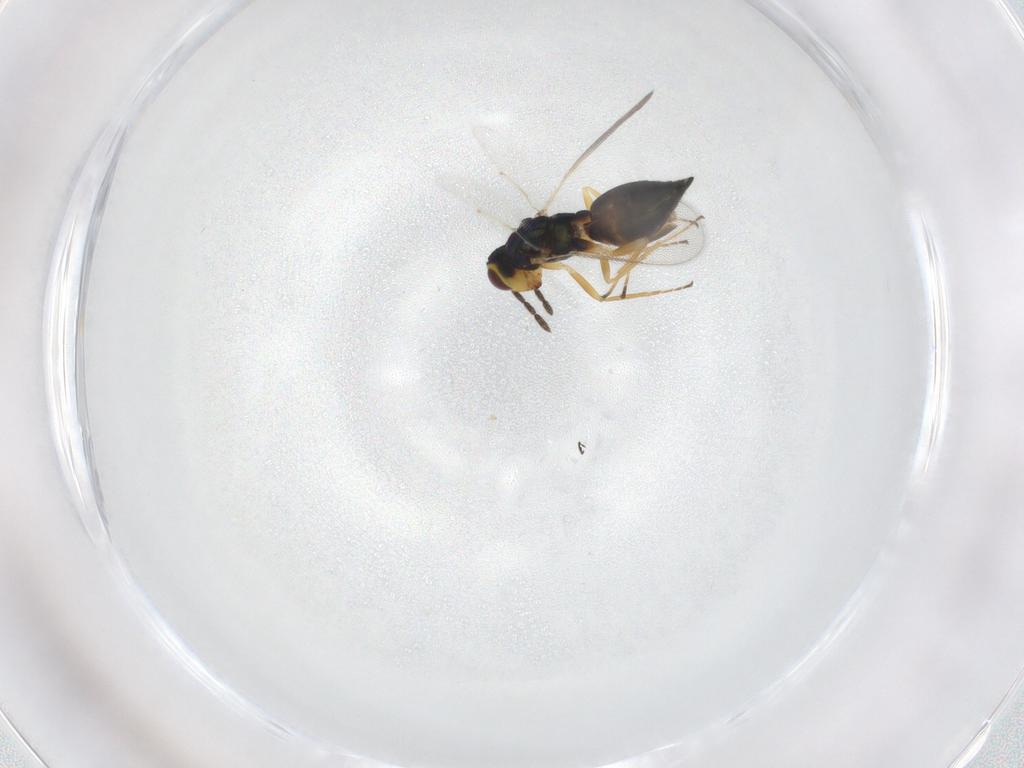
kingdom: Animalia
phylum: Arthropoda
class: Insecta
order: Hymenoptera
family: Eulophidae
